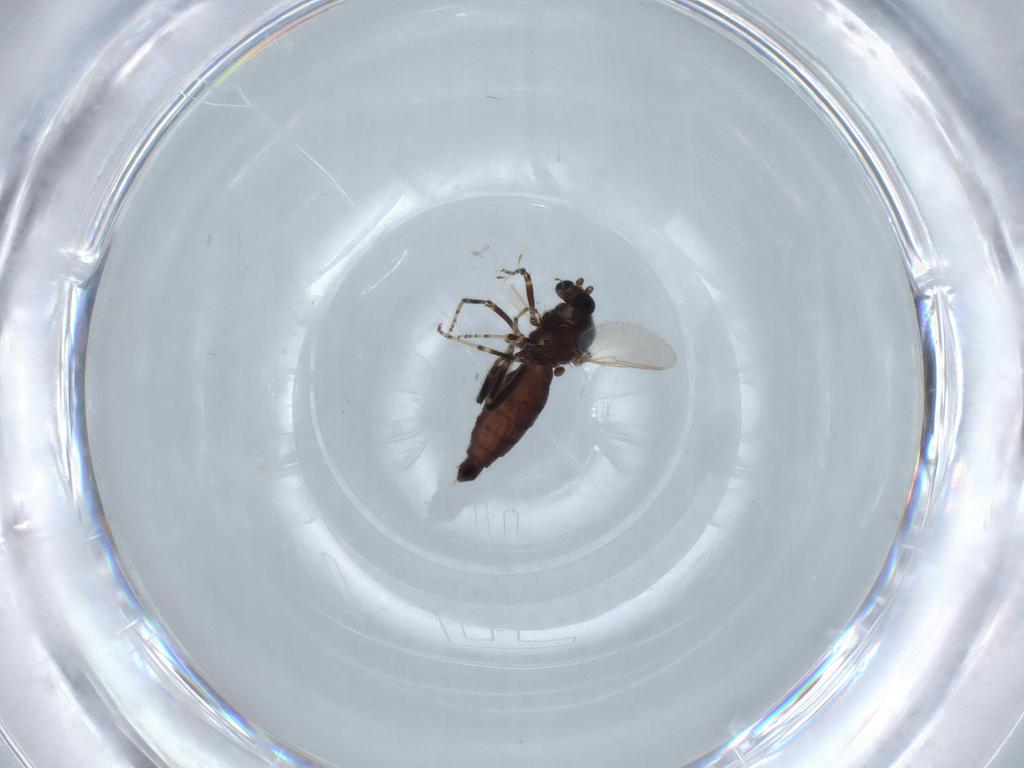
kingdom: Animalia
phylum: Arthropoda
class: Insecta
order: Diptera
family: Ceratopogonidae
